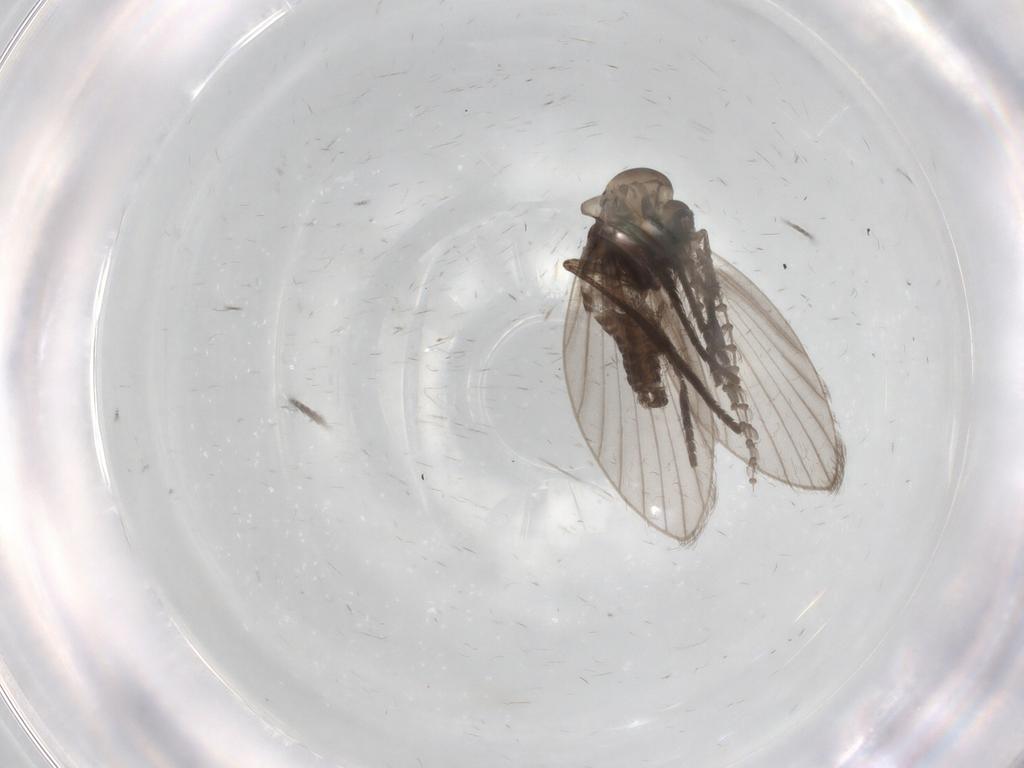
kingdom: Animalia
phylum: Arthropoda
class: Insecta
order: Diptera
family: Psychodidae
